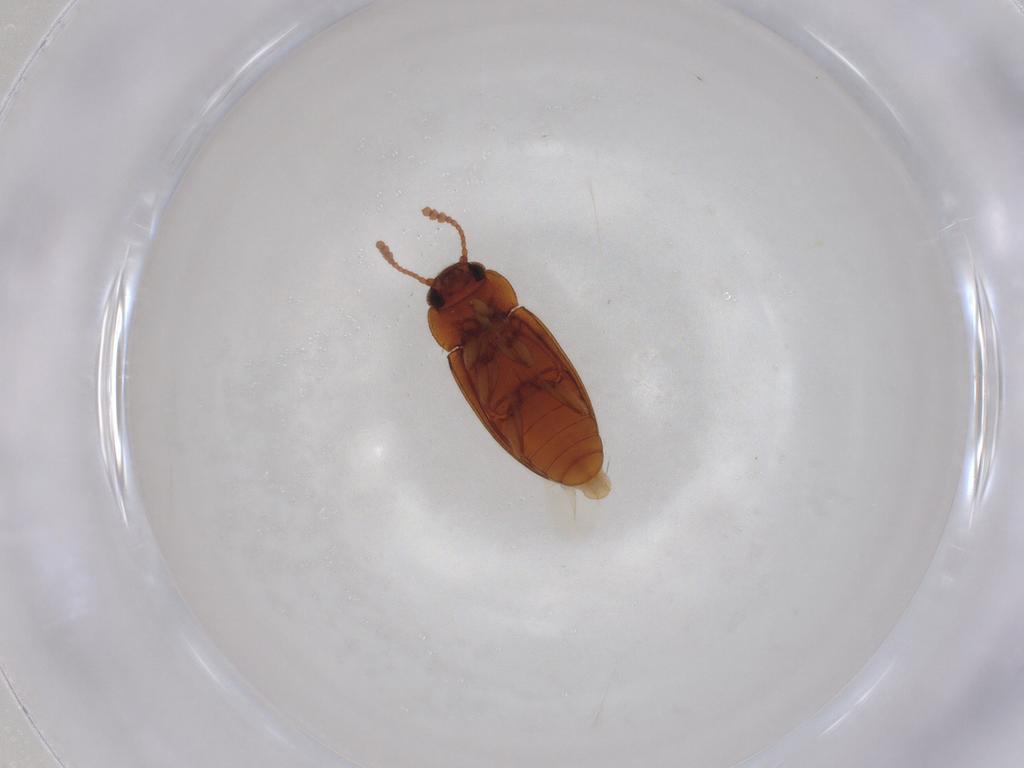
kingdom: Animalia
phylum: Arthropoda
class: Insecta
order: Coleoptera
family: Erotylidae
